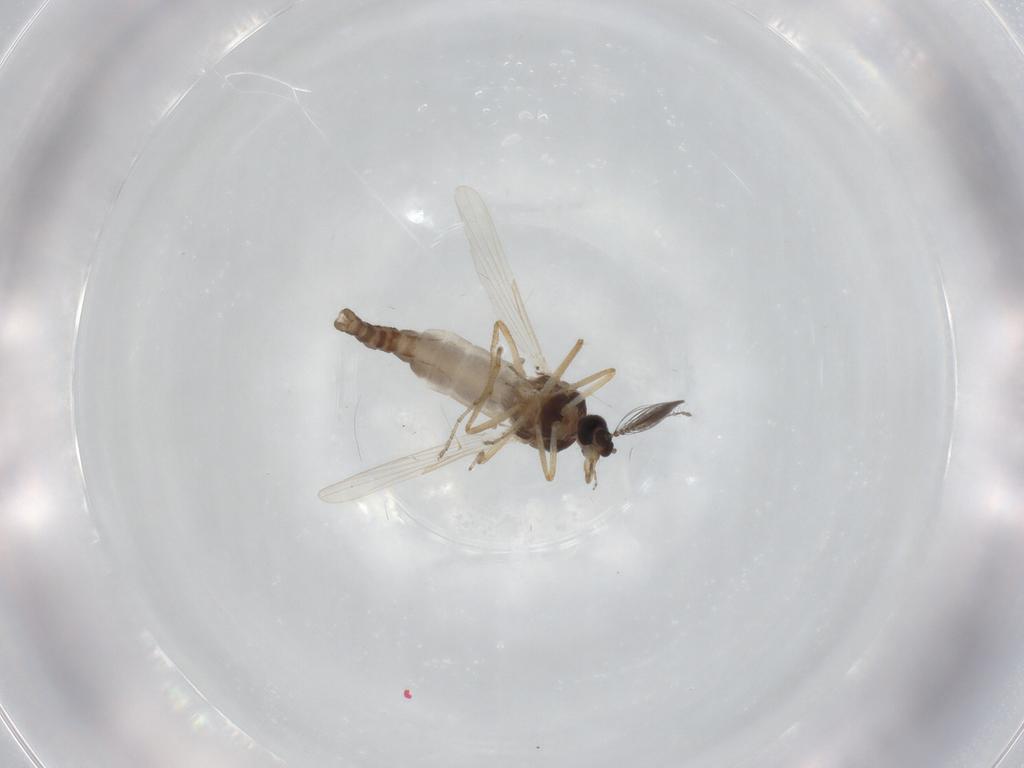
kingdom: Animalia
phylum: Arthropoda
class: Insecta
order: Diptera
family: Ceratopogonidae
